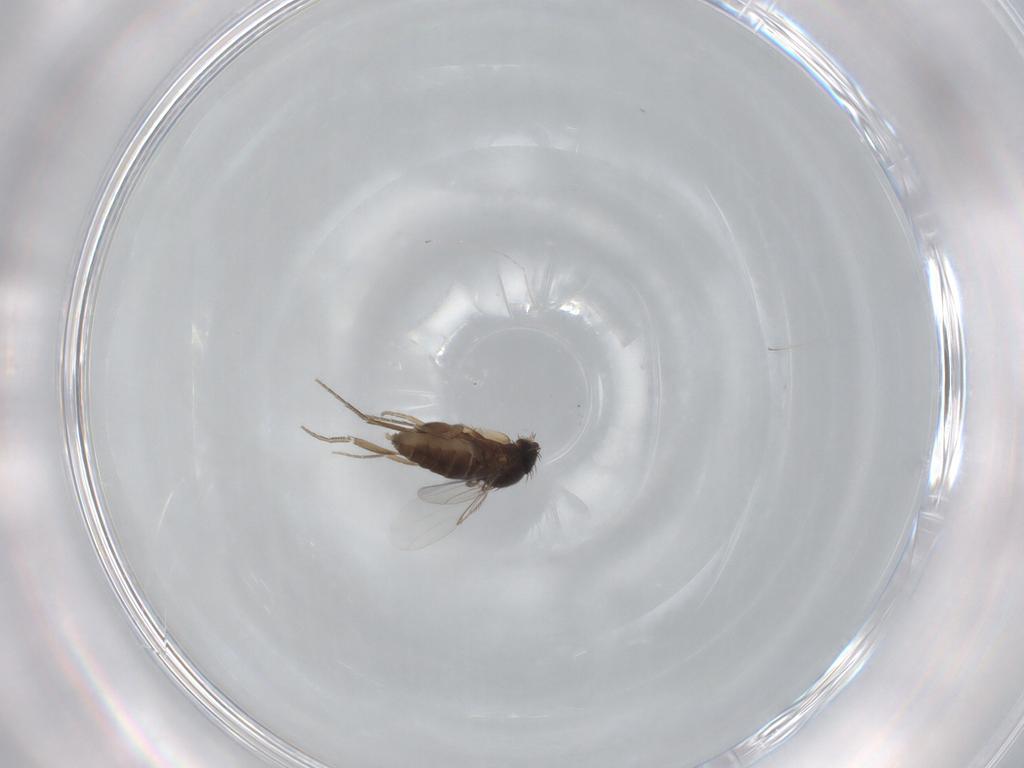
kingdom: Animalia
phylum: Arthropoda
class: Insecta
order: Diptera
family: Phoridae
